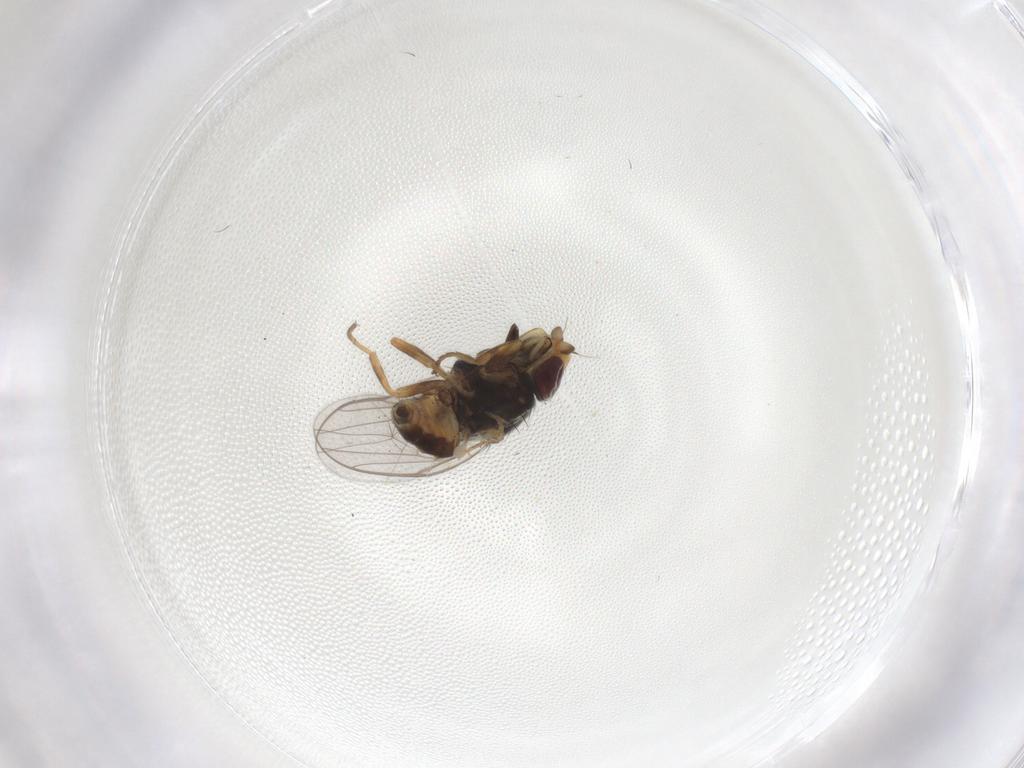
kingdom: Animalia
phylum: Arthropoda
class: Insecta
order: Diptera
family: Chloropidae
